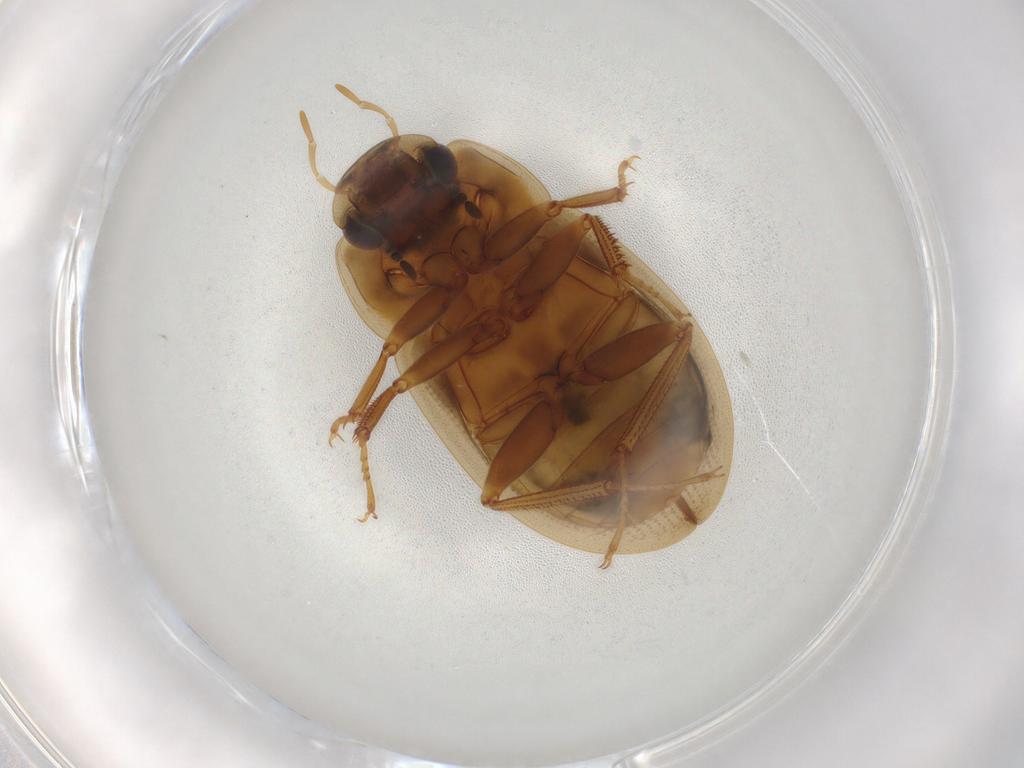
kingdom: Animalia
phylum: Arthropoda
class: Insecta
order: Coleoptera
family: Hydrophilidae
